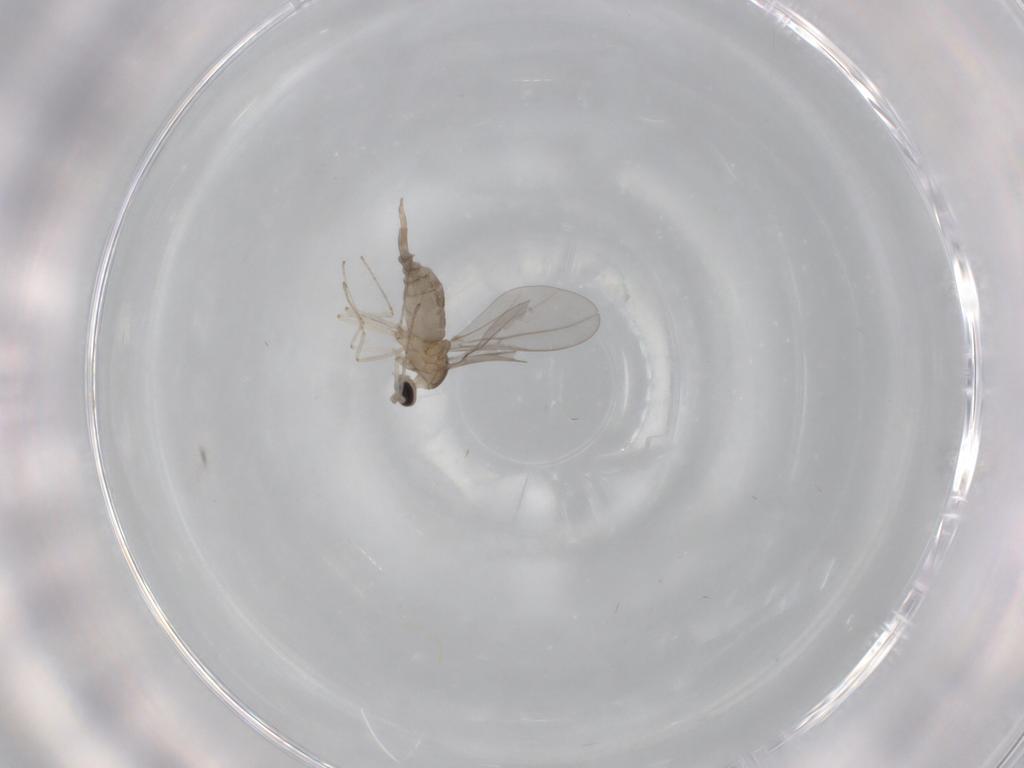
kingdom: Animalia
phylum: Arthropoda
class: Insecta
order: Diptera
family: Cecidomyiidae
